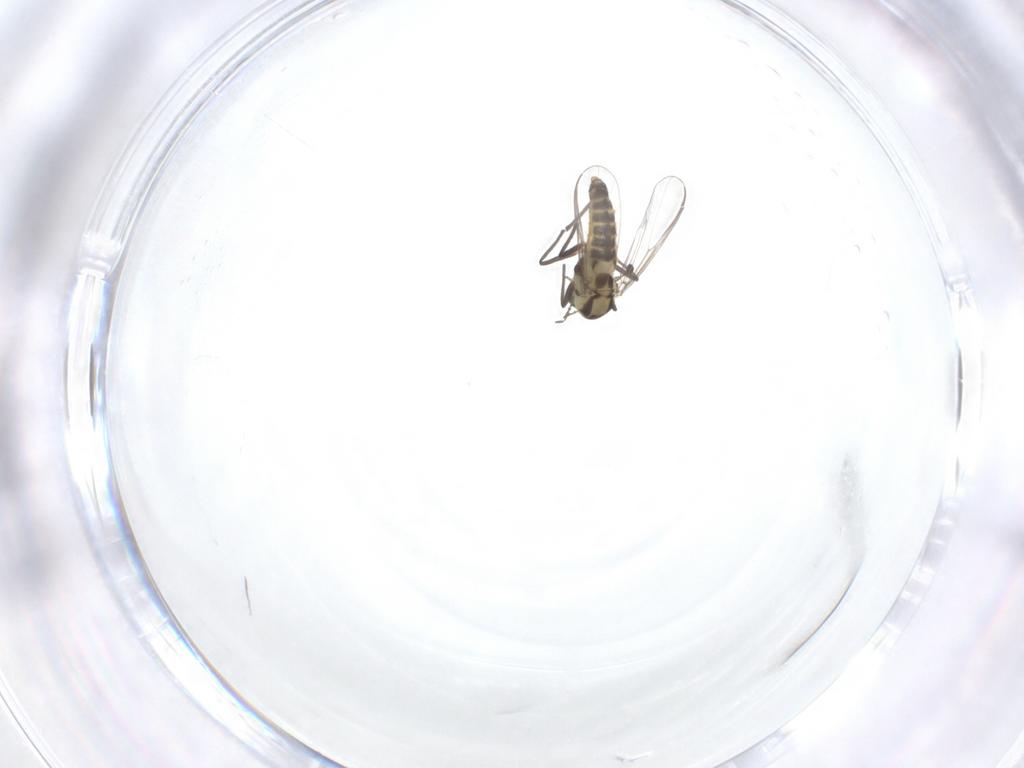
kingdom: Animalia
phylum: Arthropoda
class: Insecta
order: Diptera
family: Chironomidae
